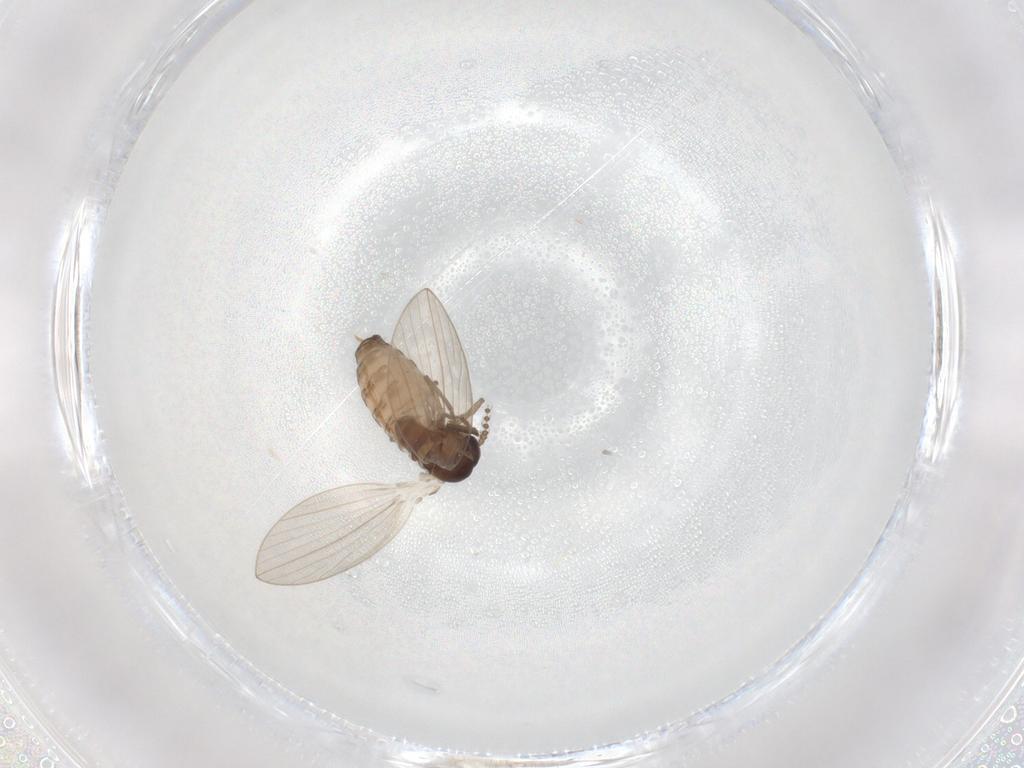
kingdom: Animalia
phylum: Arthropoda
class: Insecta
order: Diptera
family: Psychodidae
